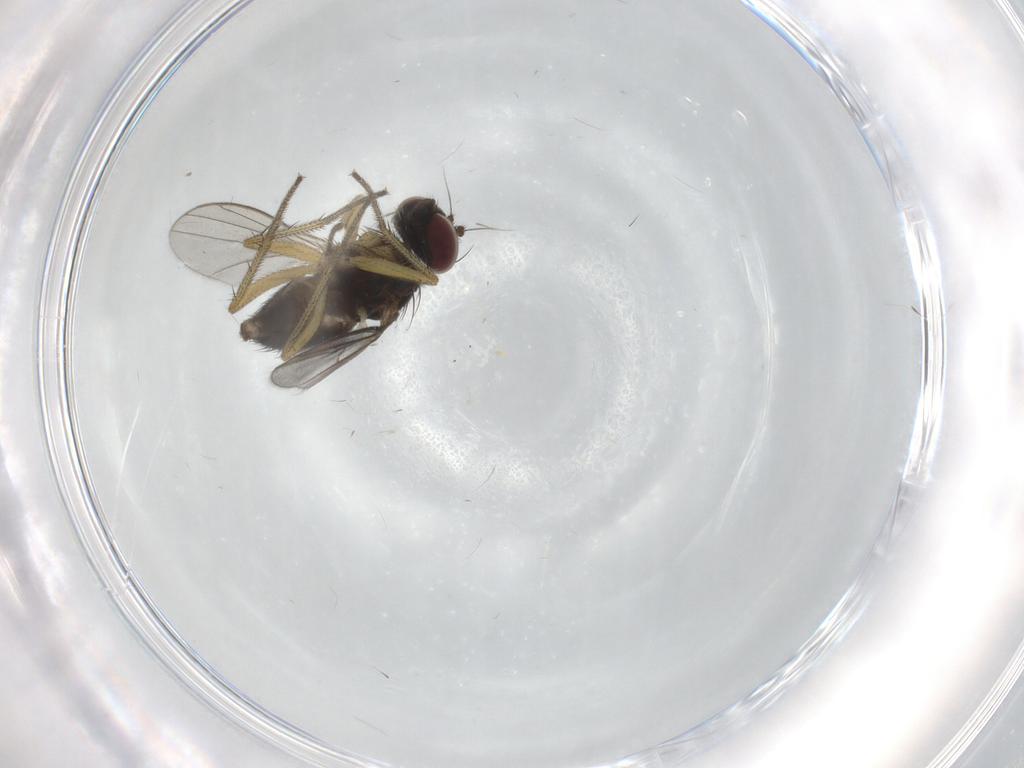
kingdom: Animalia
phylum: Arthropoda
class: Insecta
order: Diptera
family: Dolichopodidae
